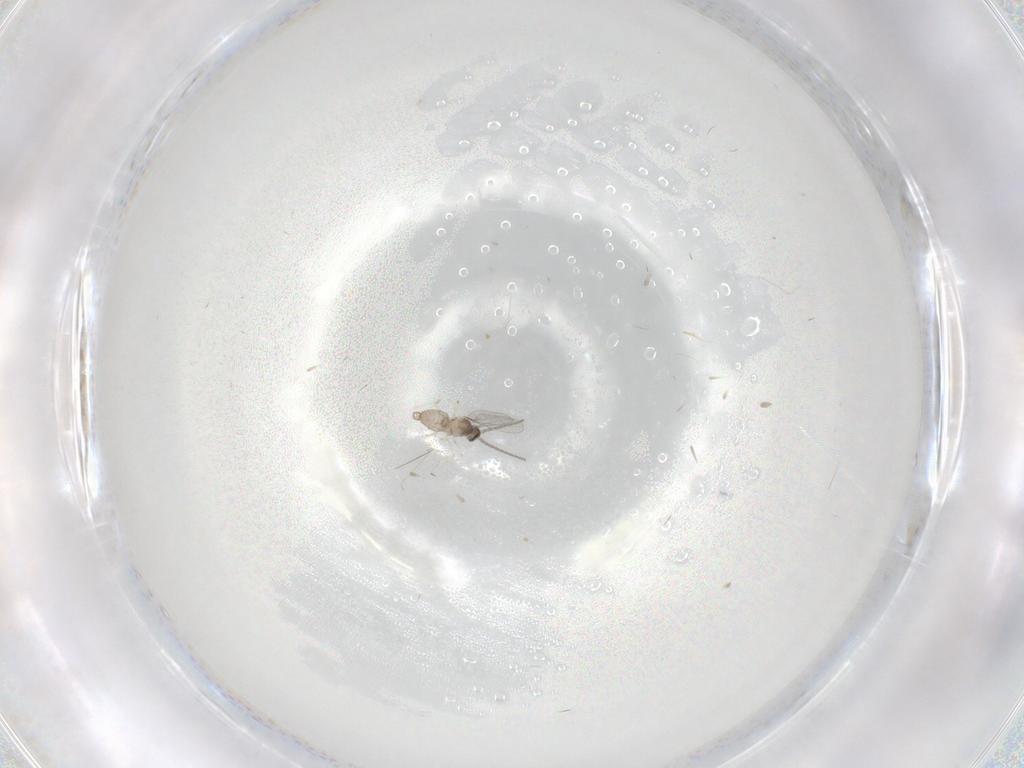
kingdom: Animalia
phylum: Arthropoda
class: Insecta
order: Diptera
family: Cecidomyiidae
